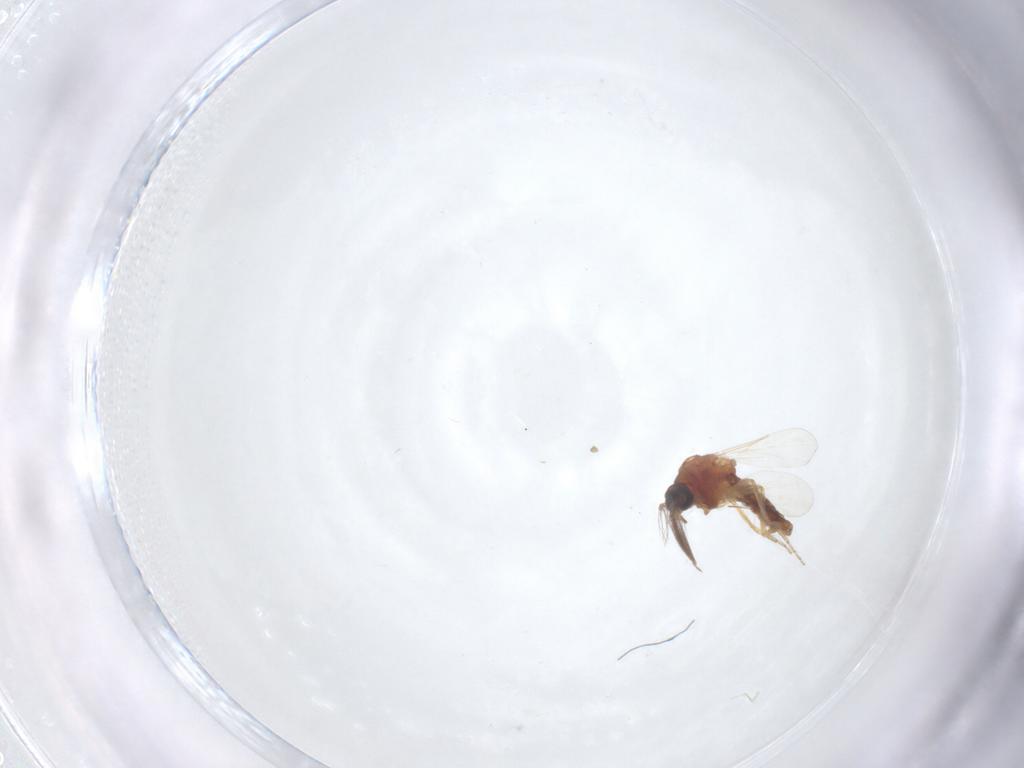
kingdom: Animalia
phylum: Arthropoda
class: Insecta
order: Diptera
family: Ceratopogonidae
